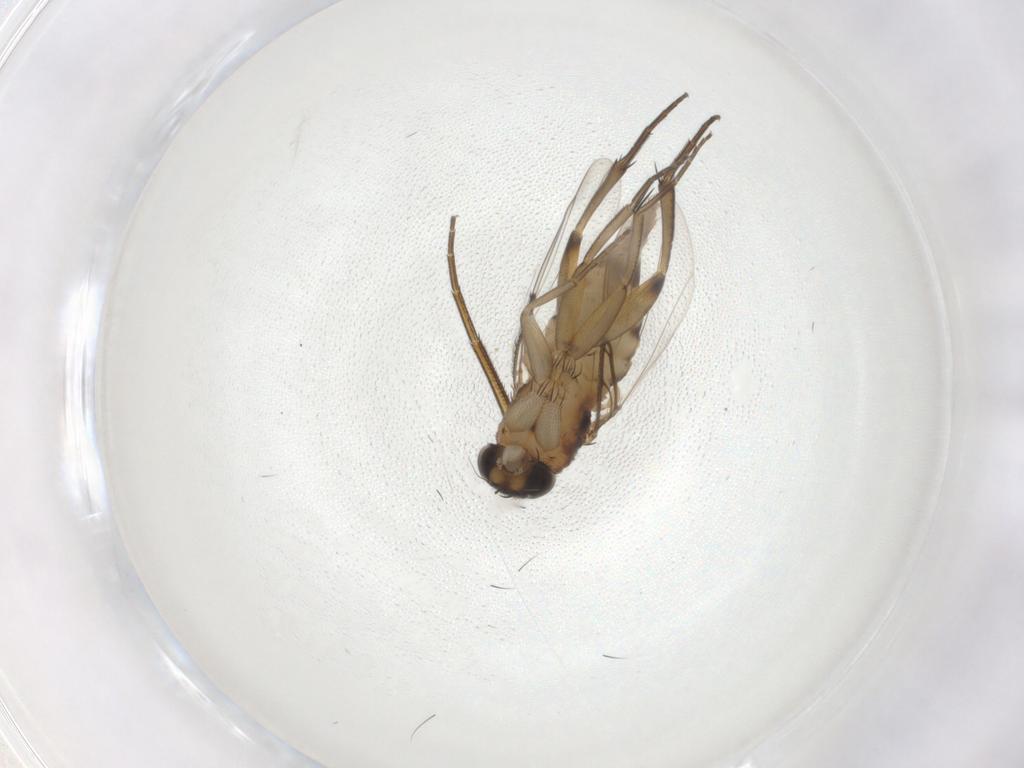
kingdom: Animalia
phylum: Arthropoda
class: Insecta
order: Diptera
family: Phoridae
